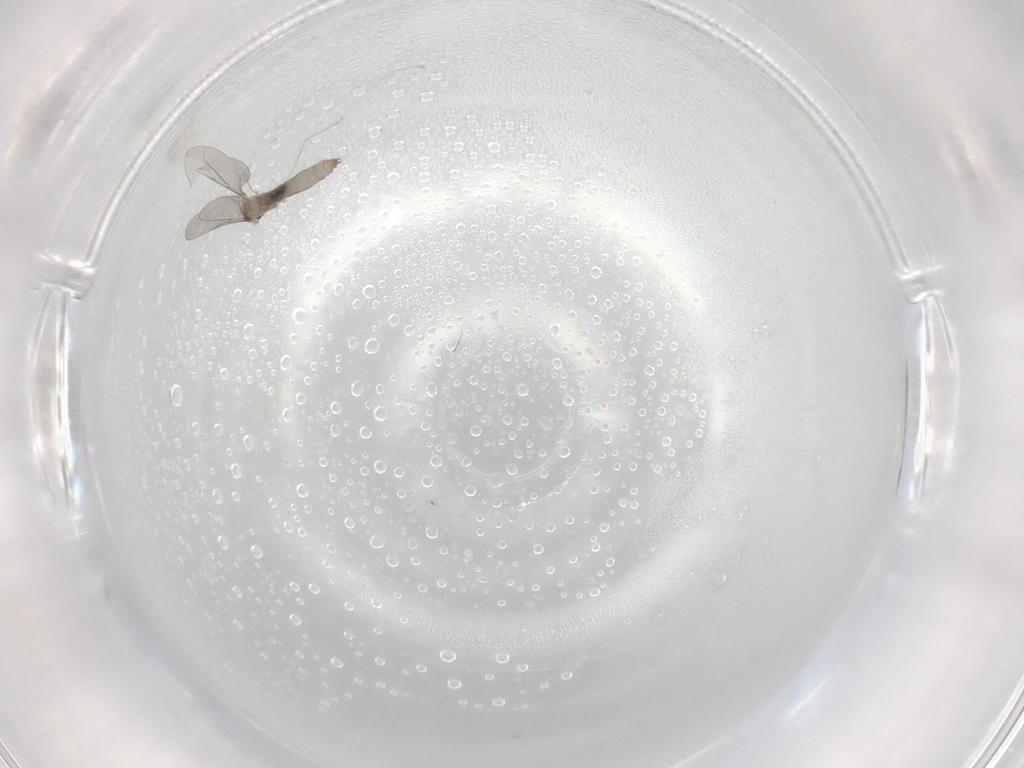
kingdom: Animalia
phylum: Arthropoda
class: Insecta
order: Diptera
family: Cecidomyiidae
